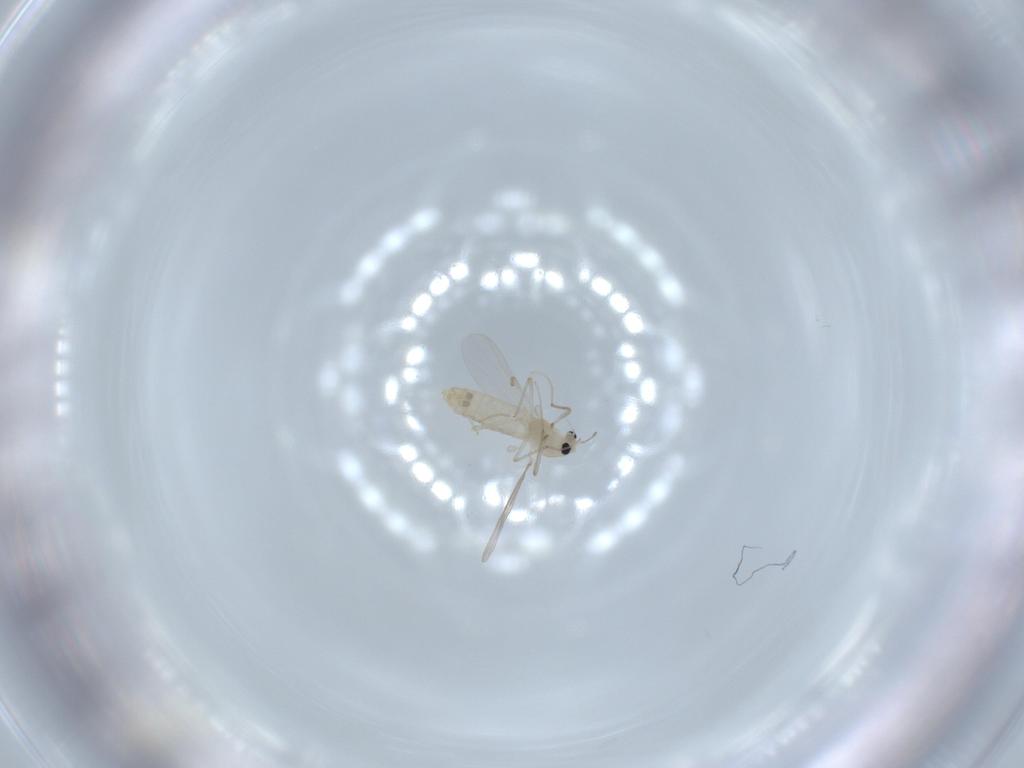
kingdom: Animalia
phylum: Arthropoda
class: Insecta
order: Diptera
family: Chironomidae
